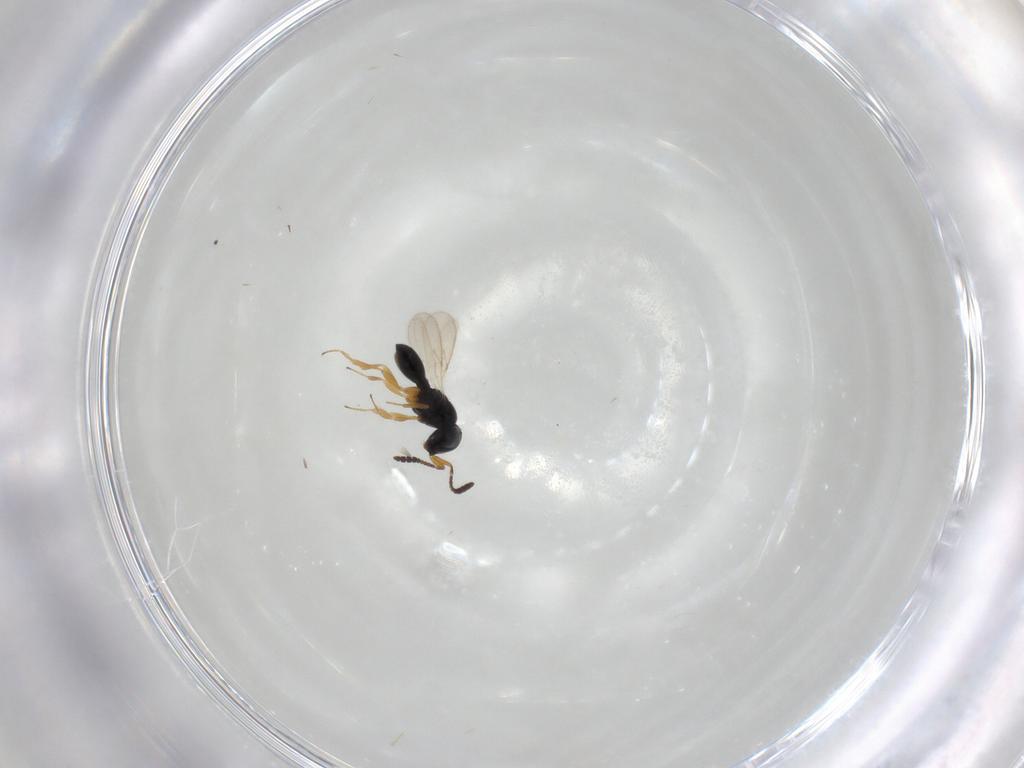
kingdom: Animalia
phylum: Arthropoda
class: Insecta
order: Hymenoptera
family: Scelionidae
